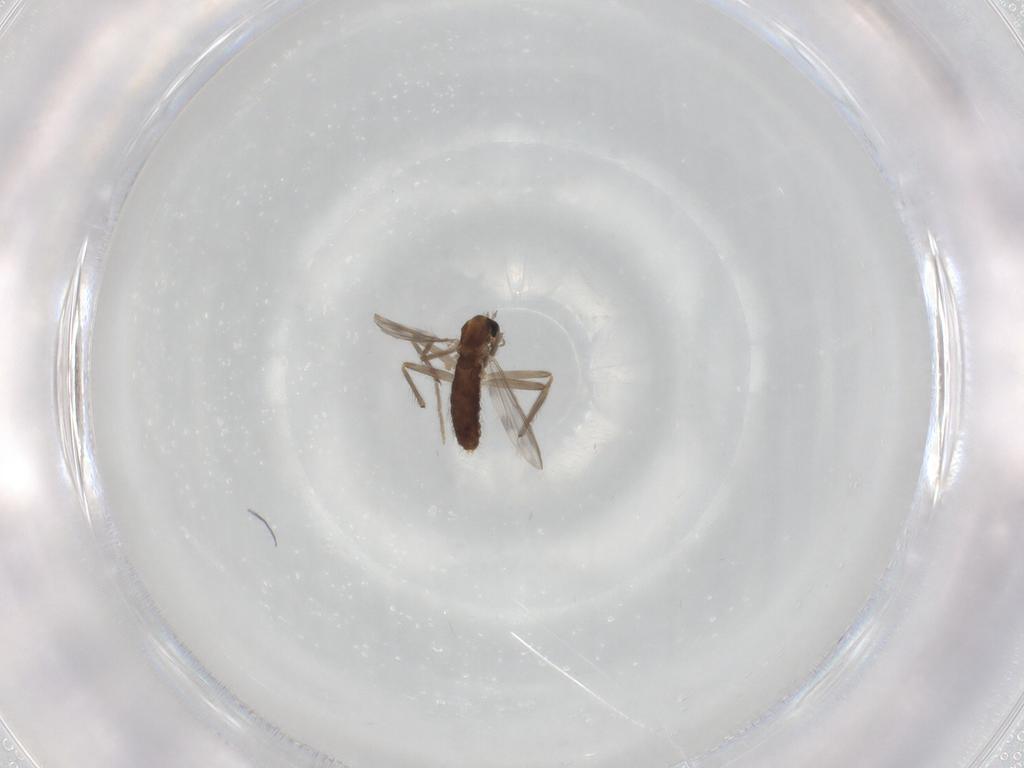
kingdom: Animalia
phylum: Arthropoda
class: Insecta
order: Diptera
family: Chironomidae
